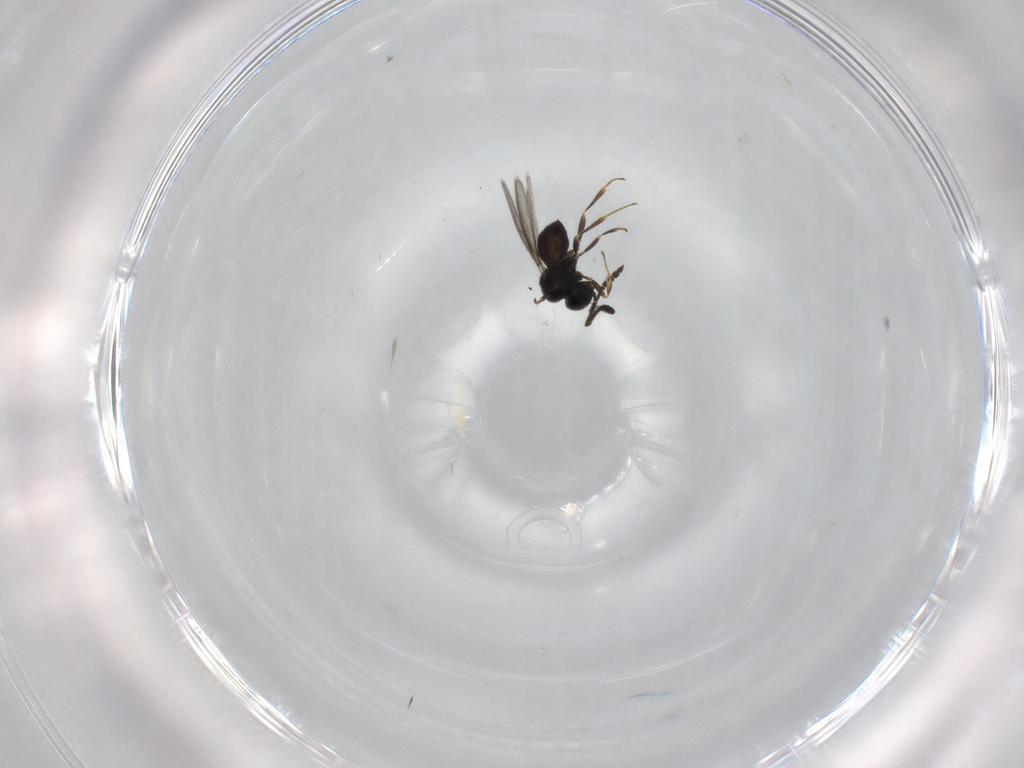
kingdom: Animalia
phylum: Arthropoda
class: Insecta
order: Hymenoptera
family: Scelionidae
